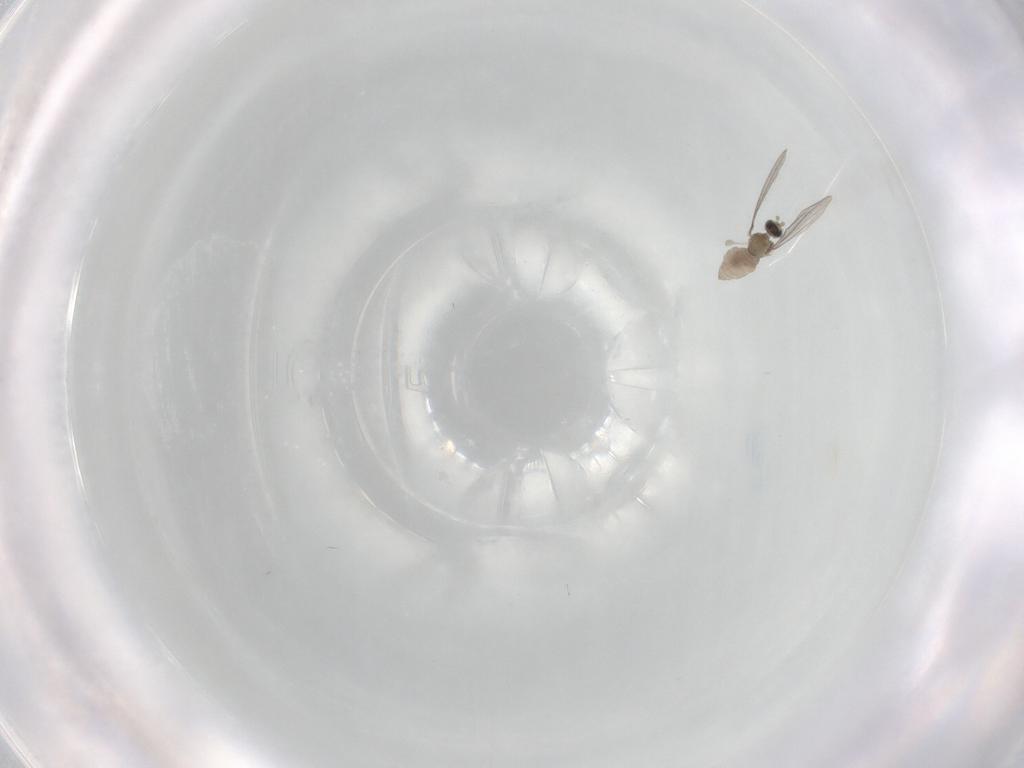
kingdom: Animalia
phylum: Arthropoda
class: Insecta
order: Diptera
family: Cecidomyiidae
